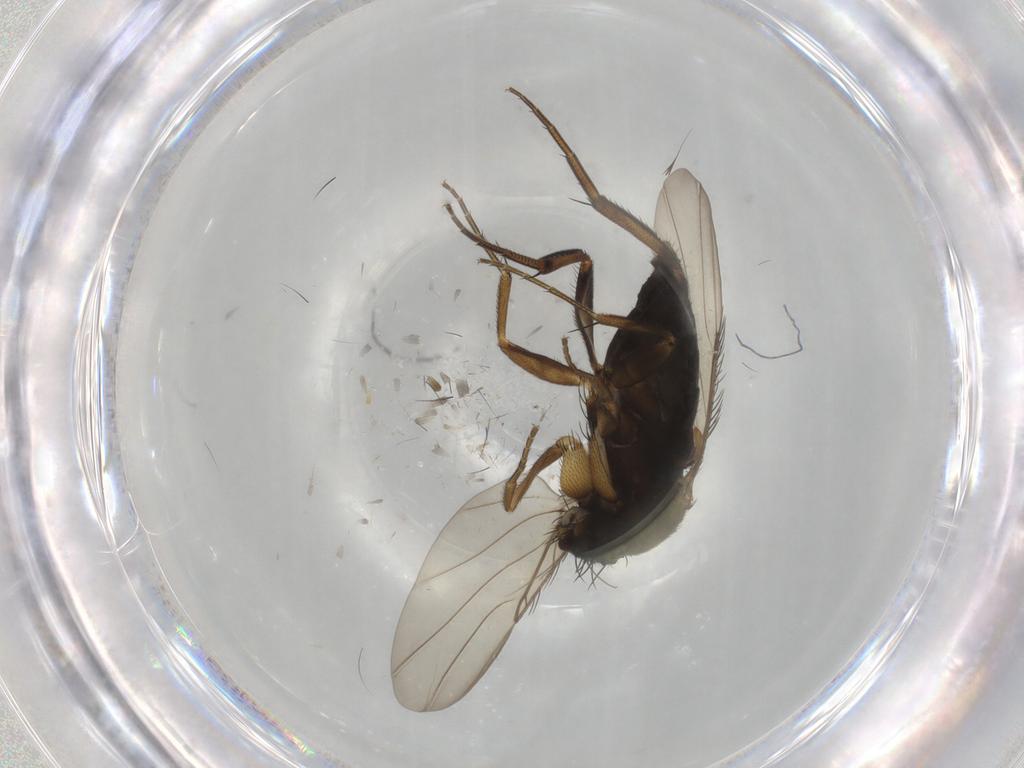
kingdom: Animalia
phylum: Arthropoda
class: Insecta
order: Diptera
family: Phoridae
